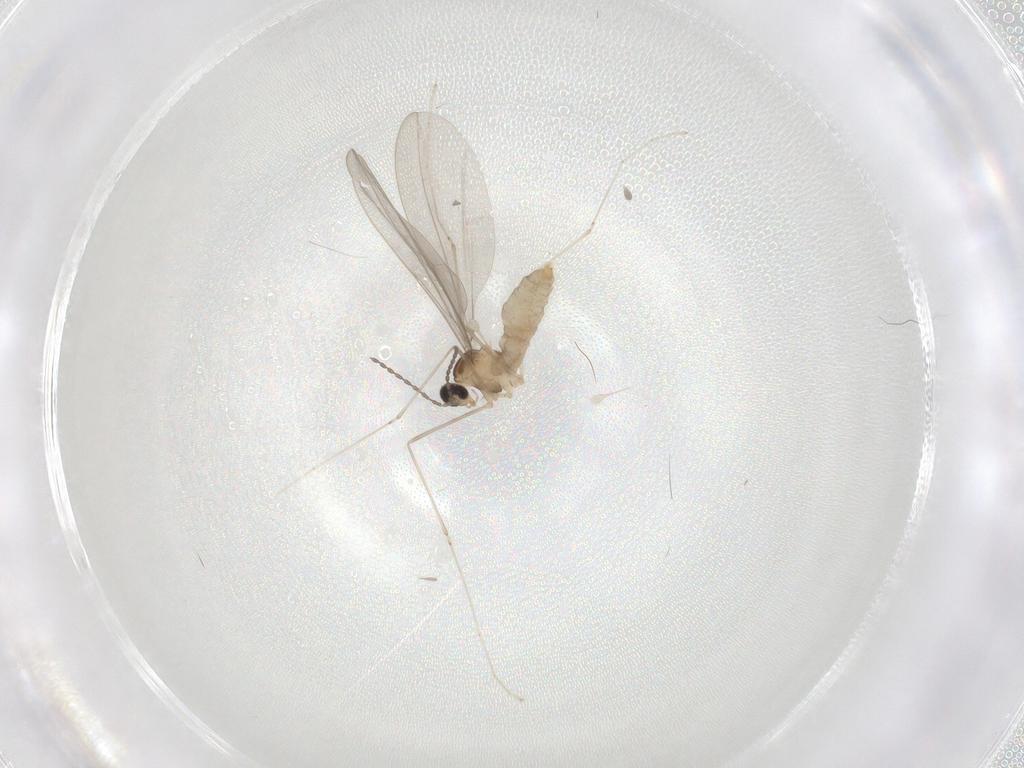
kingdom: Animalia
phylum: Arthropoda
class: Insecta
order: Diptera
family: Cecidomyiidae
